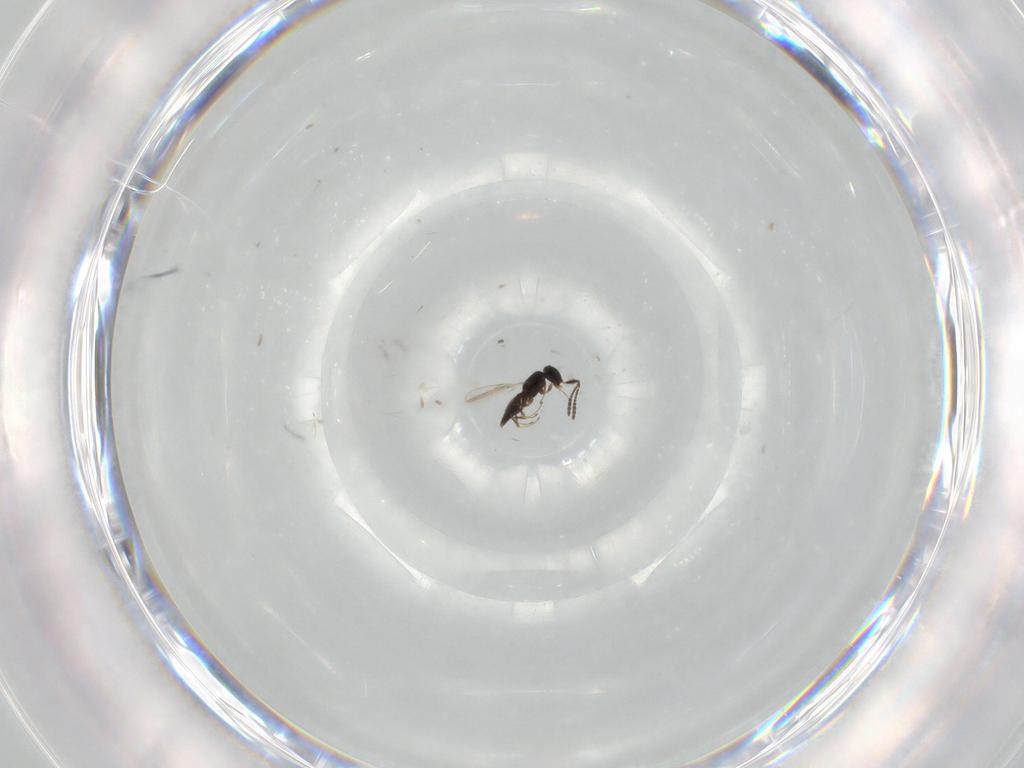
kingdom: Animalia
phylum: Arthropoda
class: Insecta
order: Hymenoptera
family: Scelionidae
